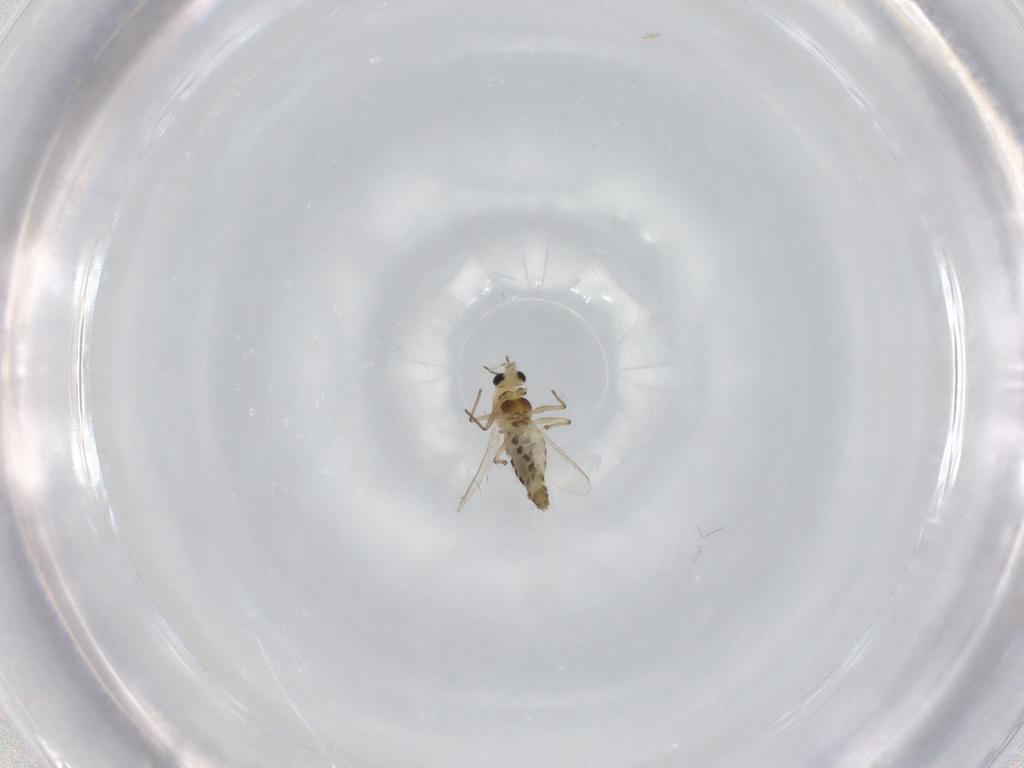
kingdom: Animalia
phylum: Arthropoda
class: Insecta
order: Diptera
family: Chironomidae
